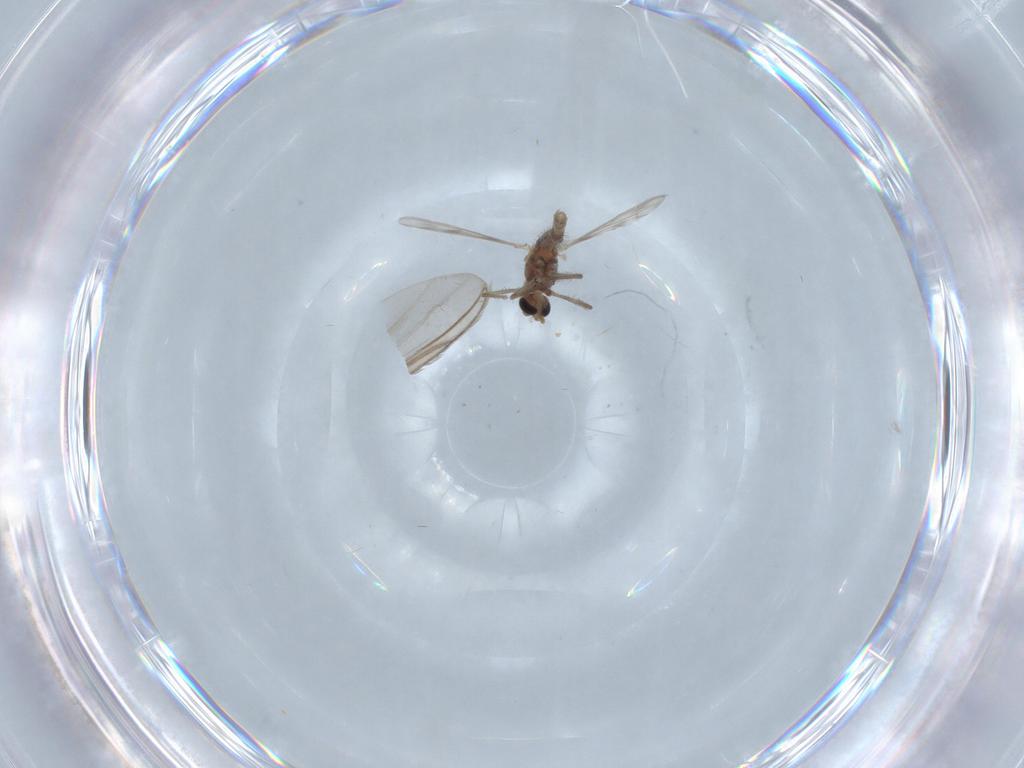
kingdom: Animalia
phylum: Arthropoda
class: Insecta
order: Diptera
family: Chironomidae
